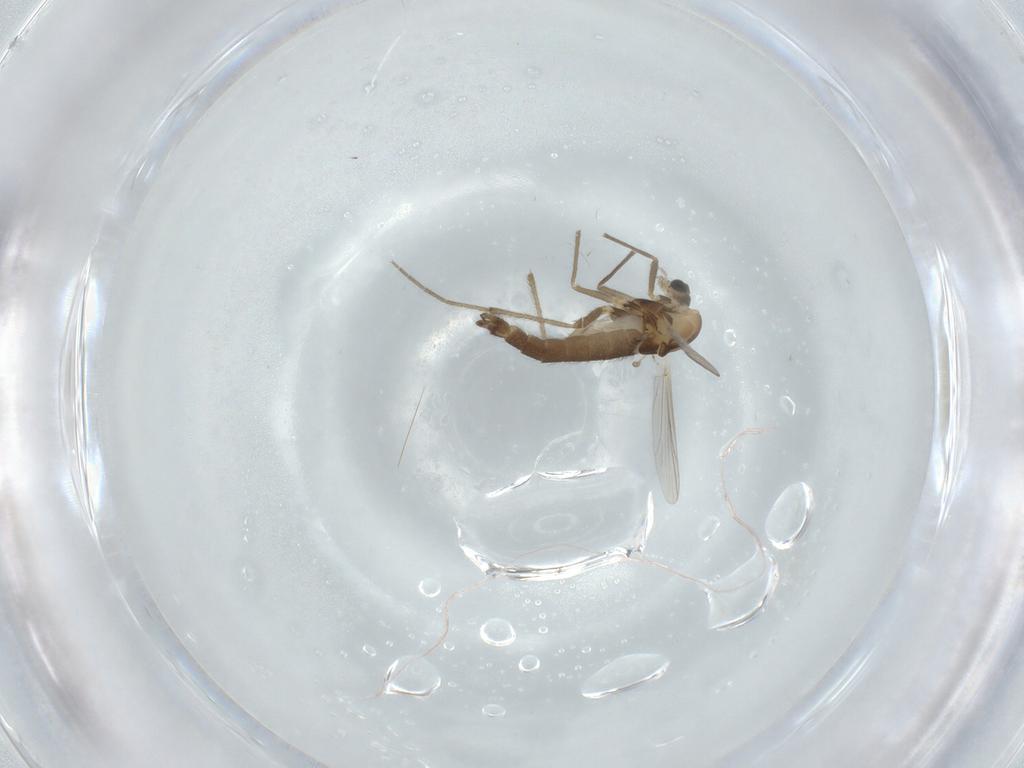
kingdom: Animalia
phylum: Arthropoda
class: Insecta
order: Diptera
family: Chironomidae
